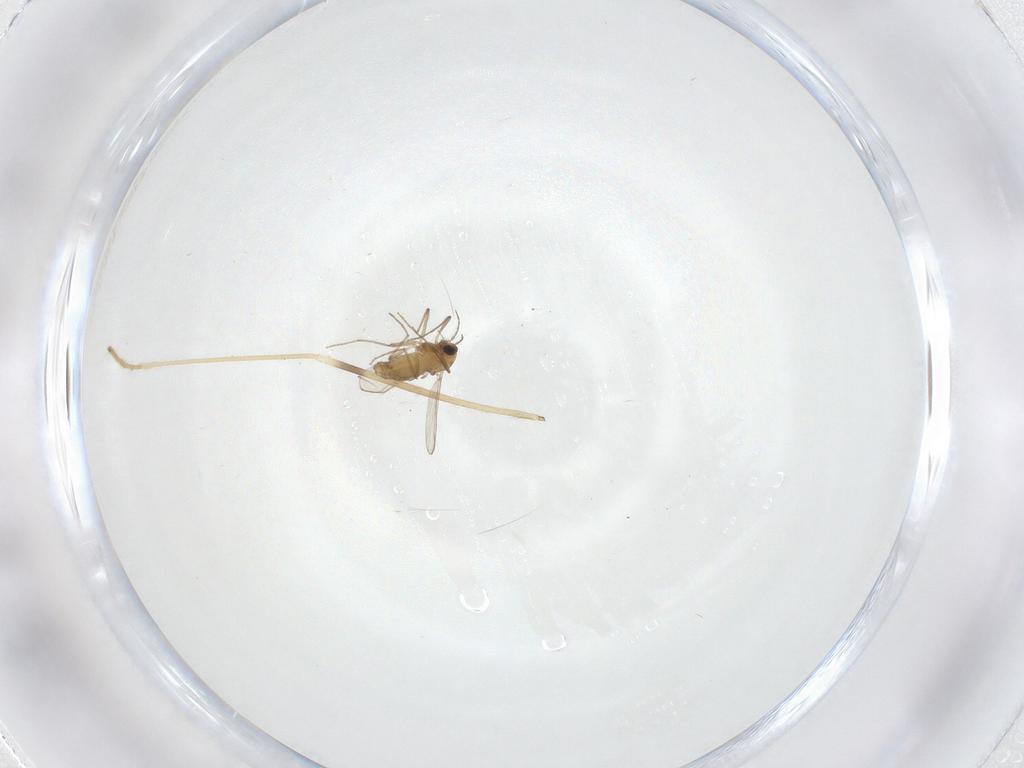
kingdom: Animalia
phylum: Arthropoda
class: Insecta
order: Diptera
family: Limoniidae
